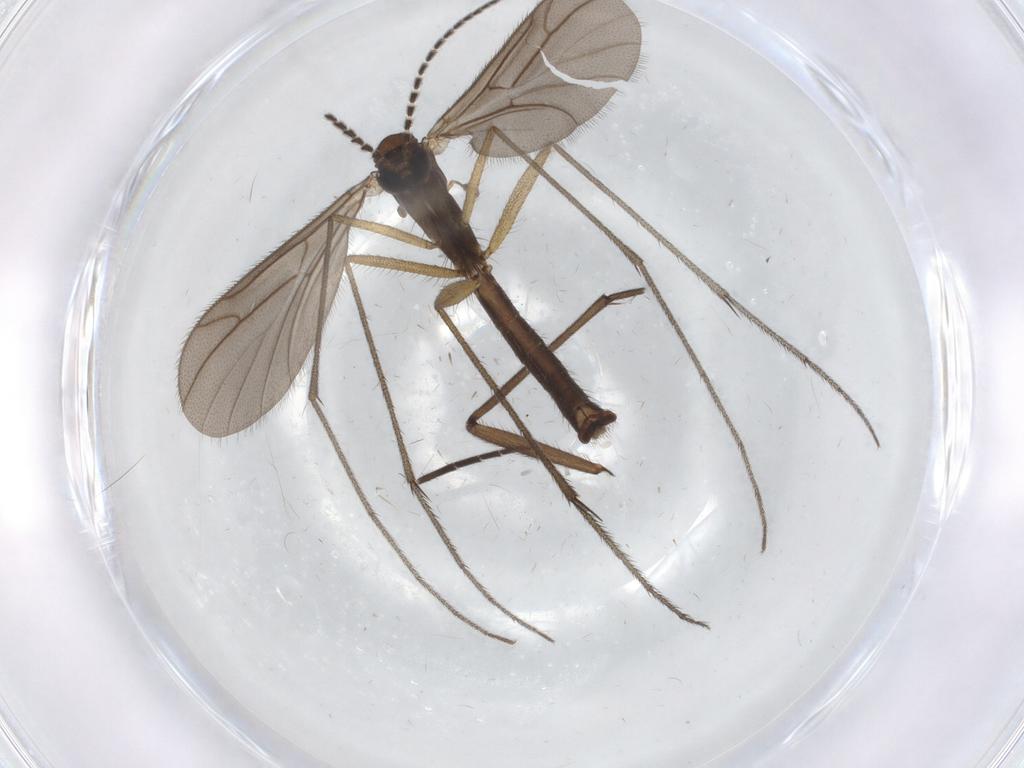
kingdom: Animalia
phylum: Arthropoda
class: Insecta
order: Diptera
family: Ditomyiidae
